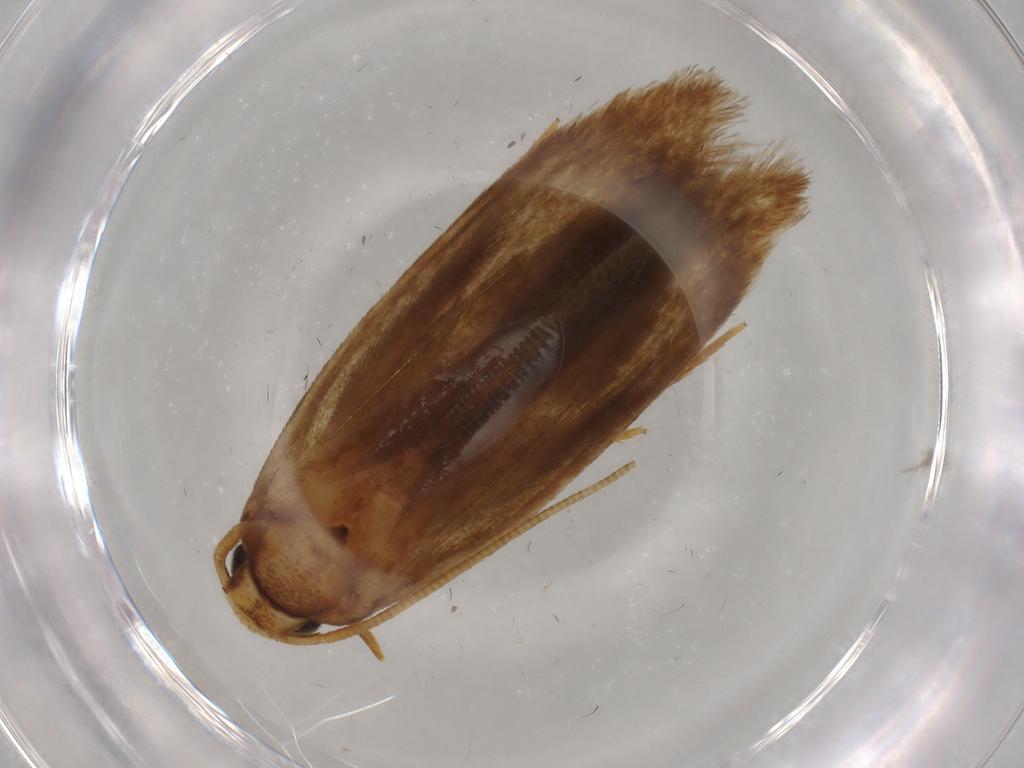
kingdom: Animalia
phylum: Arthropoda
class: Insecta
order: Lepidoptera
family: Tineidae
